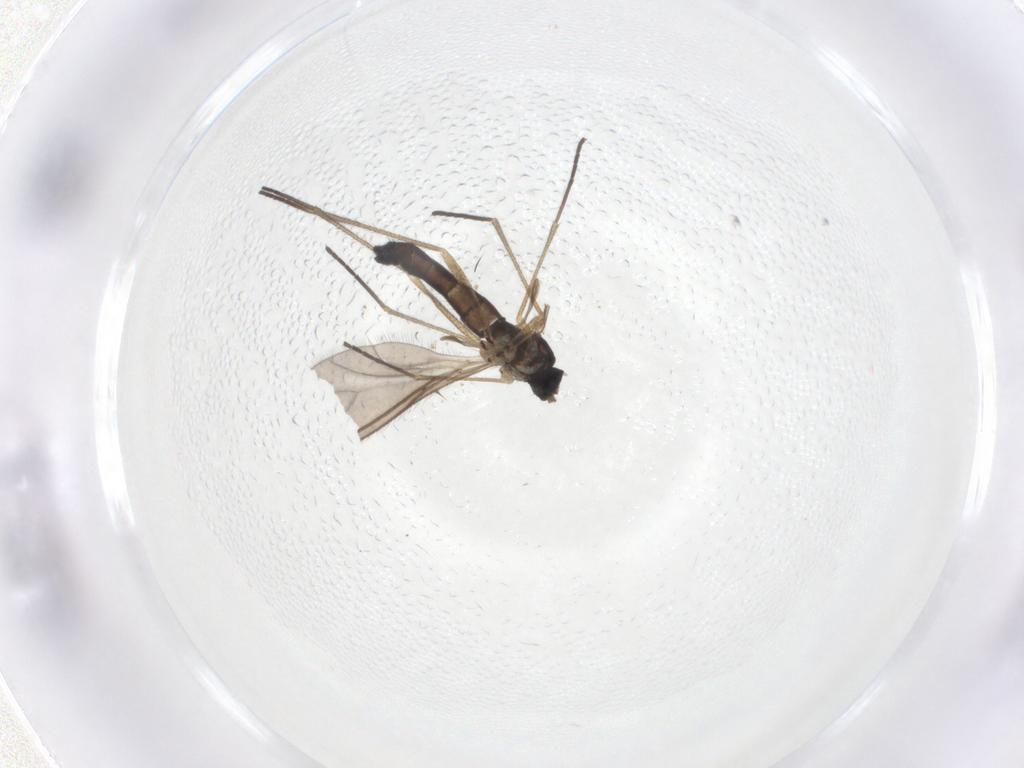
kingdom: Animalia
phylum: Arthropoda
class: Insecta
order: Diptera
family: Sciaridae
